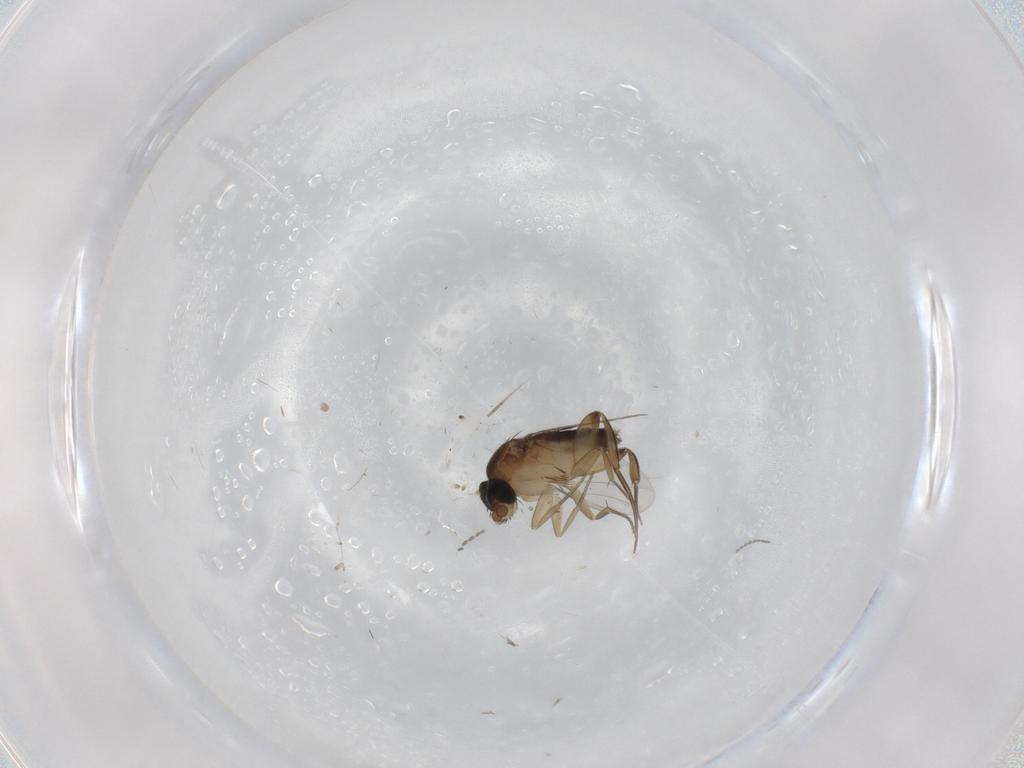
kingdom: Animalia
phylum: Arthropoda
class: Insecta
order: Diptera
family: Phoridae
